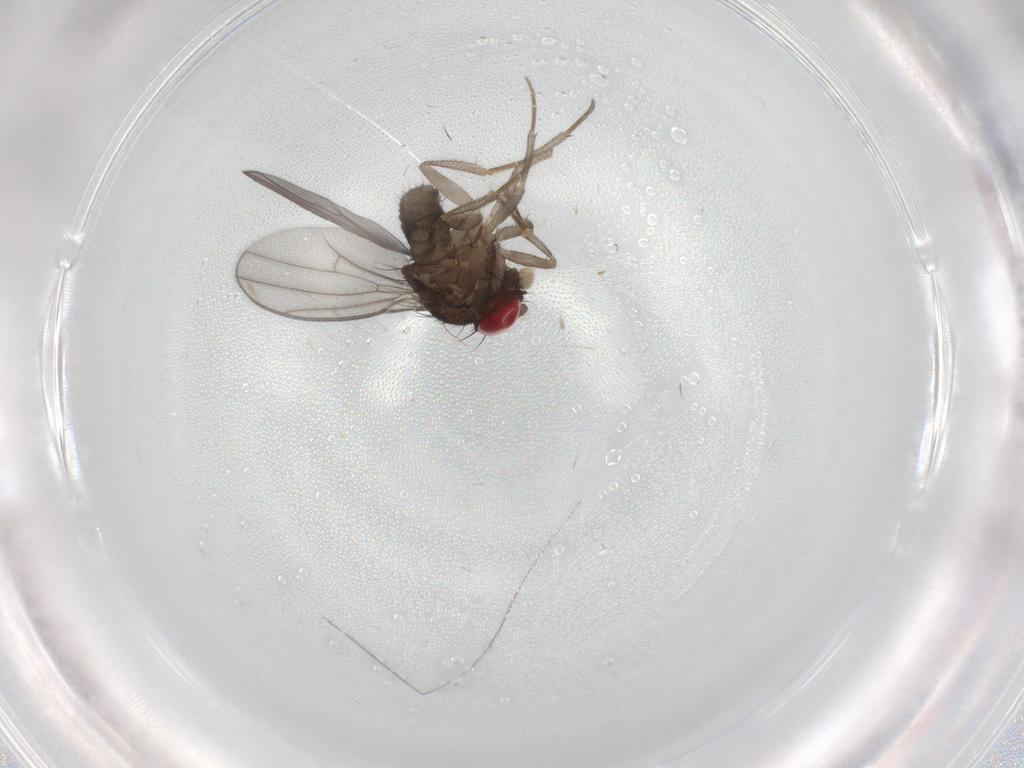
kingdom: Animalia
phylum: Arthropoda
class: Insecta
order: Diptera
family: Drosophilidae
